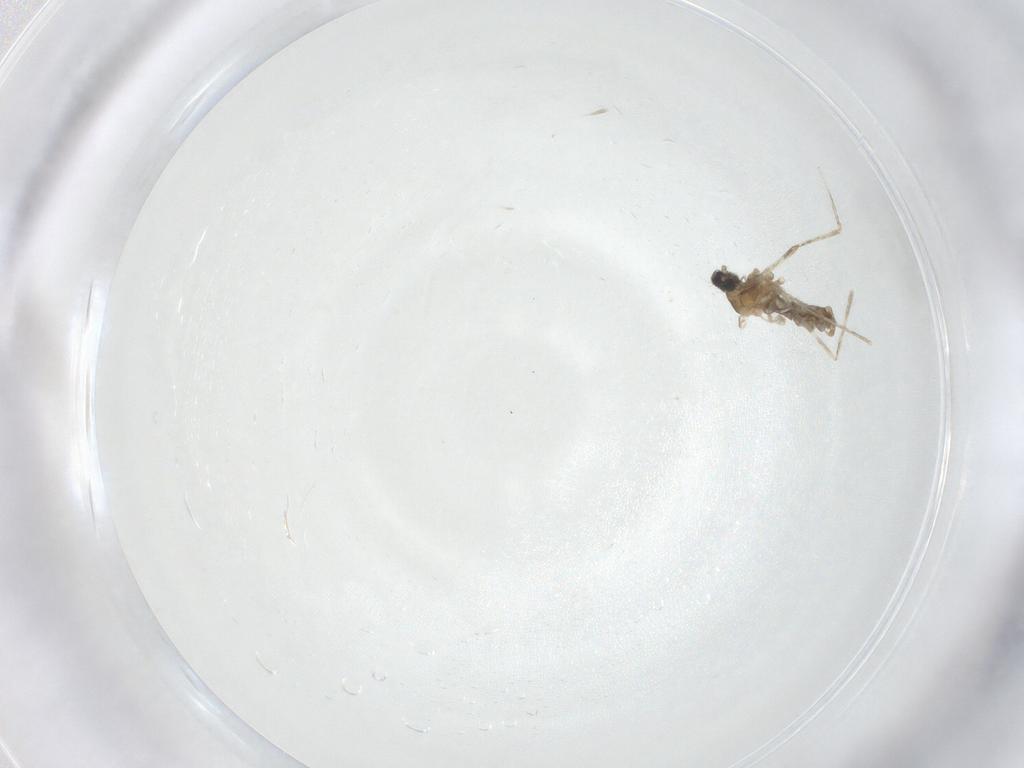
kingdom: Animalia
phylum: Arthropoda
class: Insecta
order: Diptera
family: Cecidomyiidae
